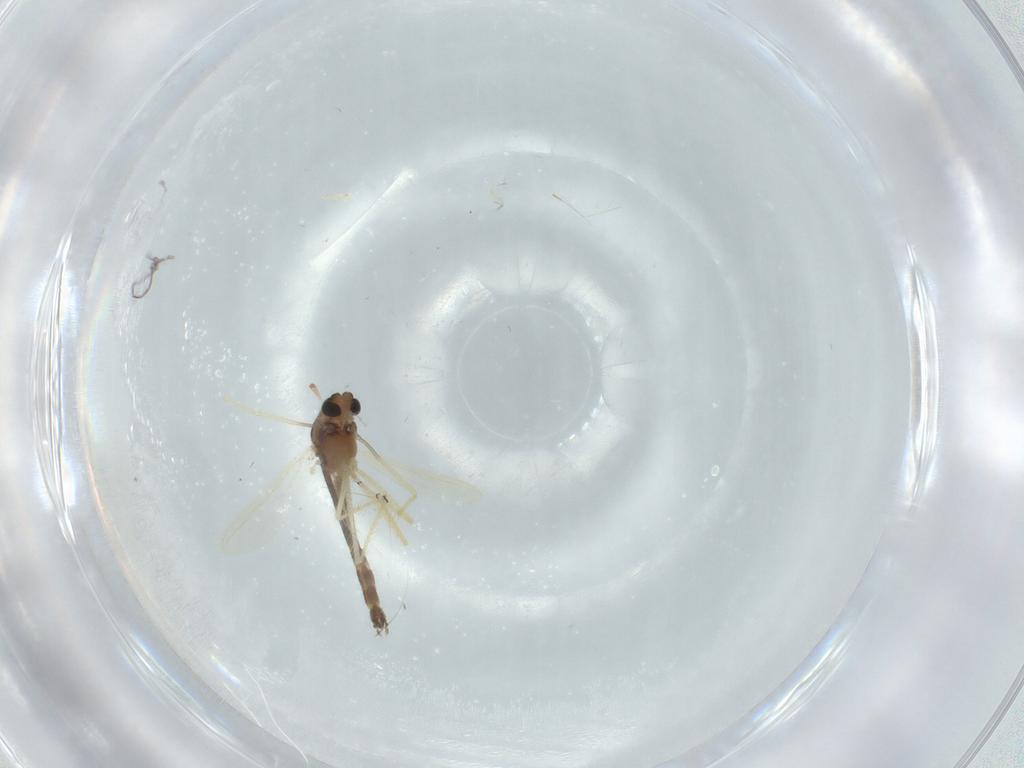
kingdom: Animalia
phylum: Arthropoda
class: Insecta
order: Diptera
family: Chironomidae
